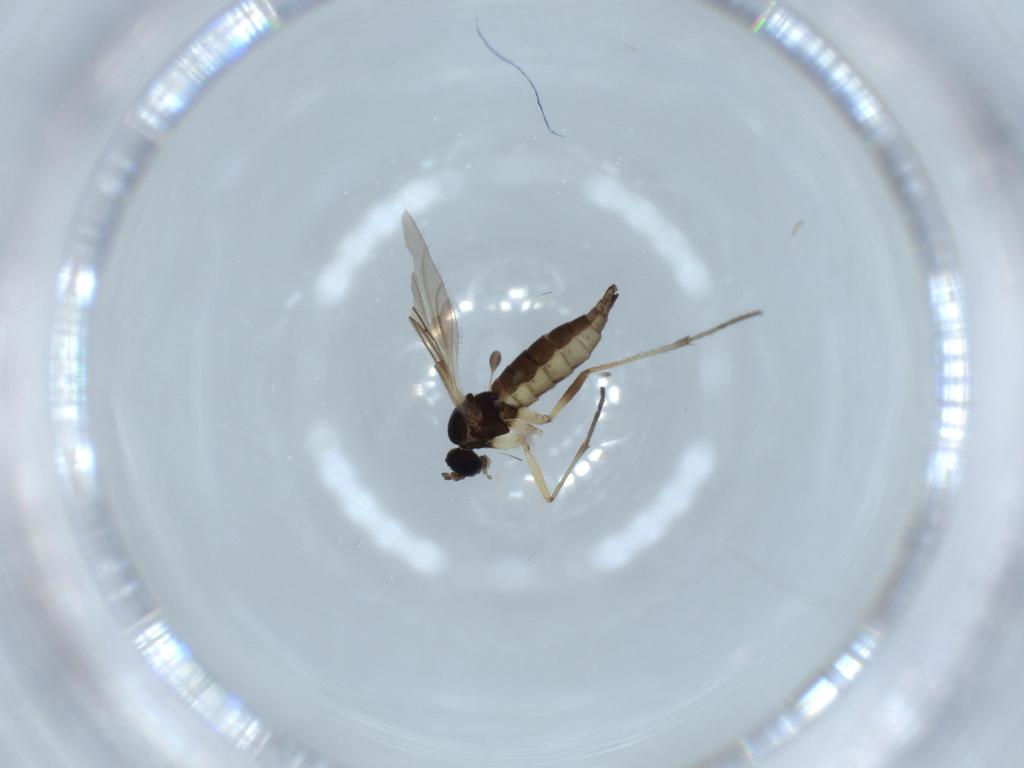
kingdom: Animalia
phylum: Arthropoda
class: Insecta
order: Diptera
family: Sciaridae
